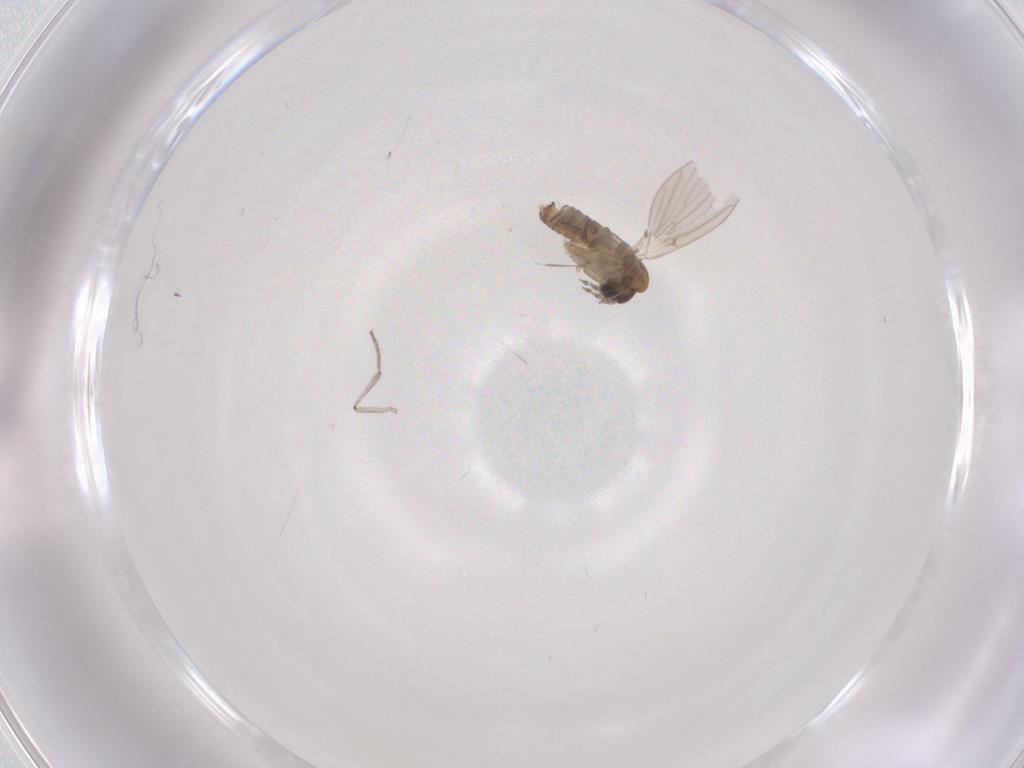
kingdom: Animalia
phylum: Arthropoda
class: Insecta
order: Diptera
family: Psychodidae
